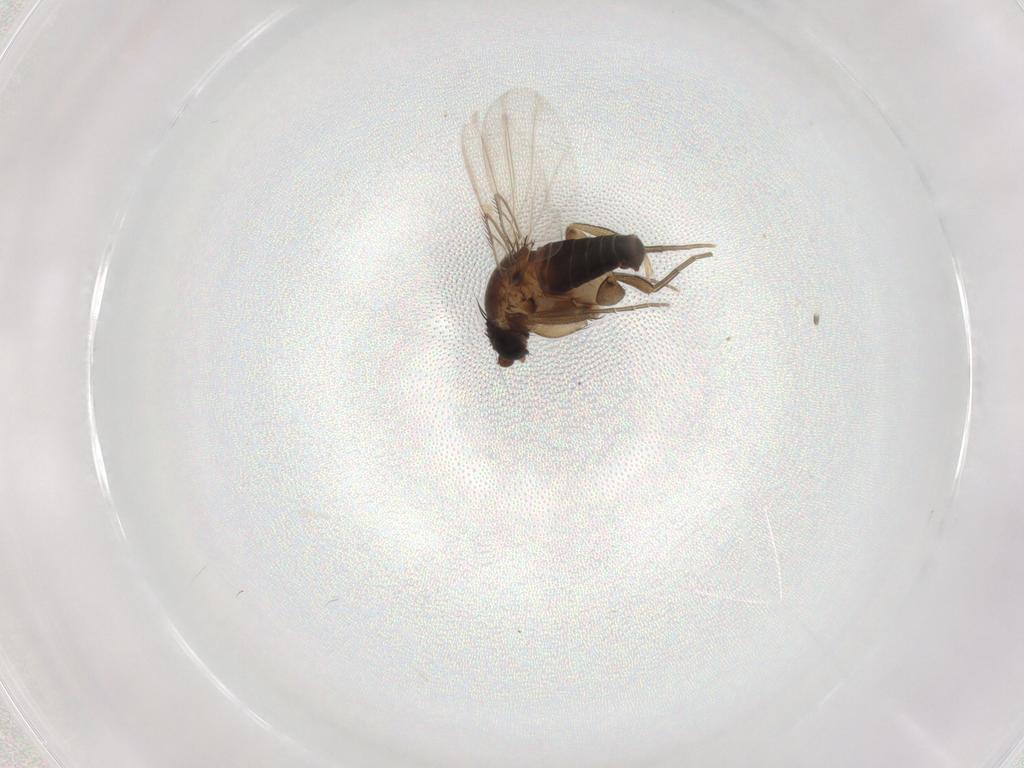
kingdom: Animalia
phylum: Arthropoda
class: Insecta
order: Diptera
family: Phoridae
